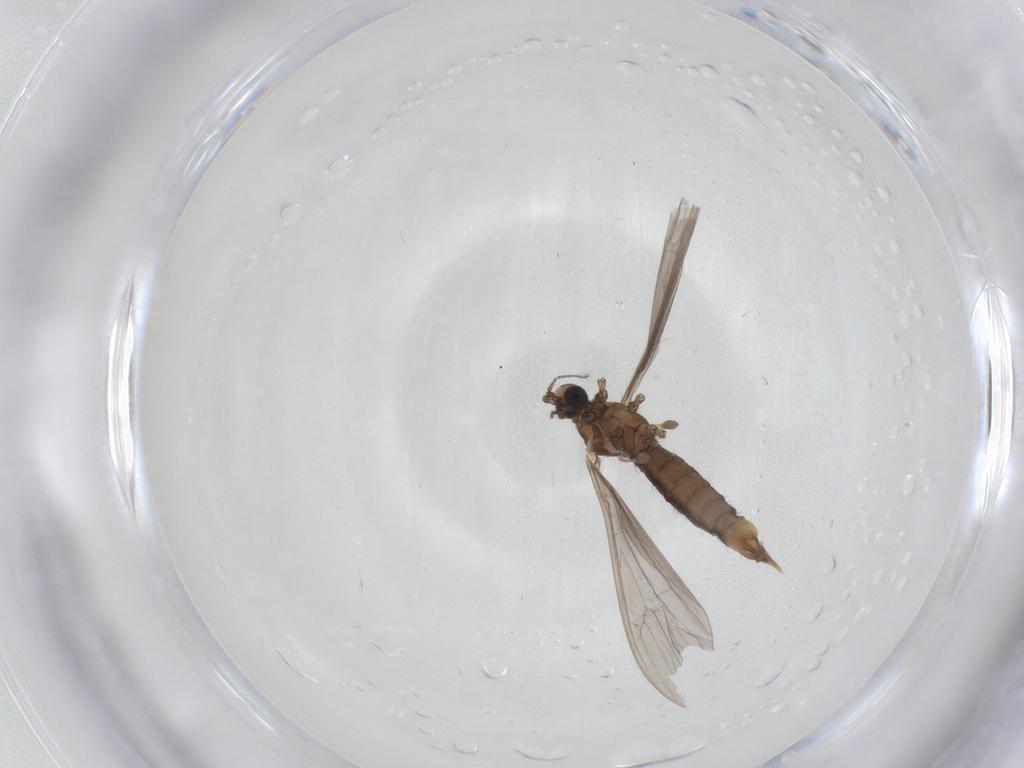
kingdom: Animalia
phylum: Arthropoda
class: Insecta
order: Diptera
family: Limoniidae
